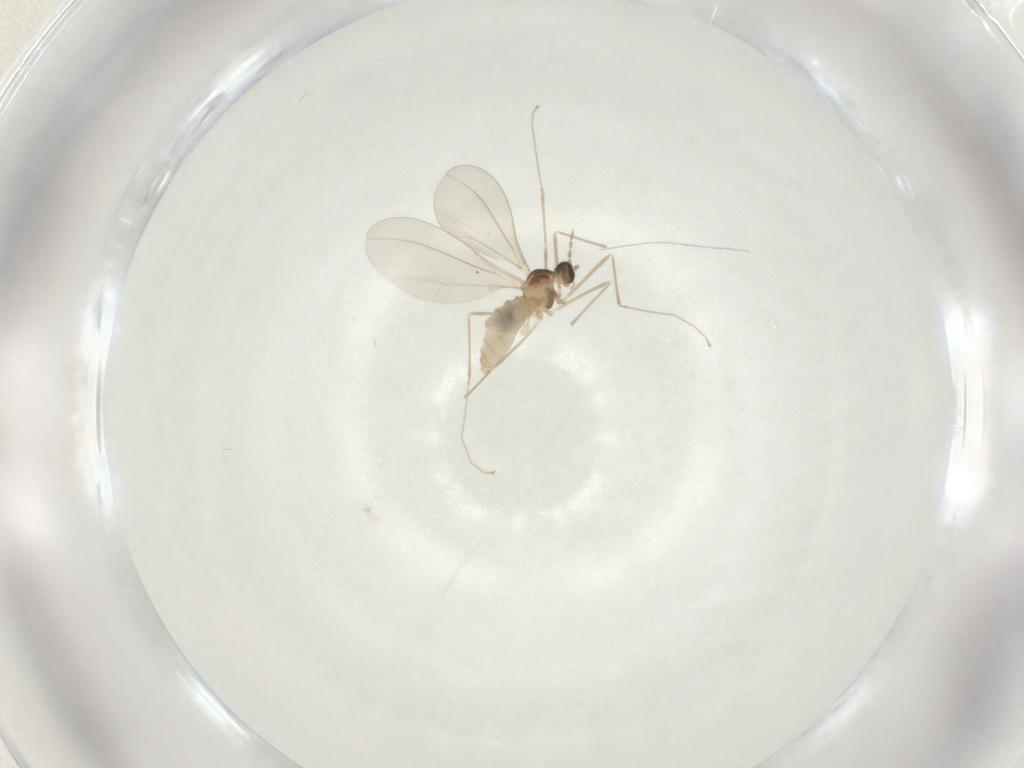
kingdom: Animalia
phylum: Arthropoda
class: Insecta
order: Diptera
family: Cecidomyiidae
